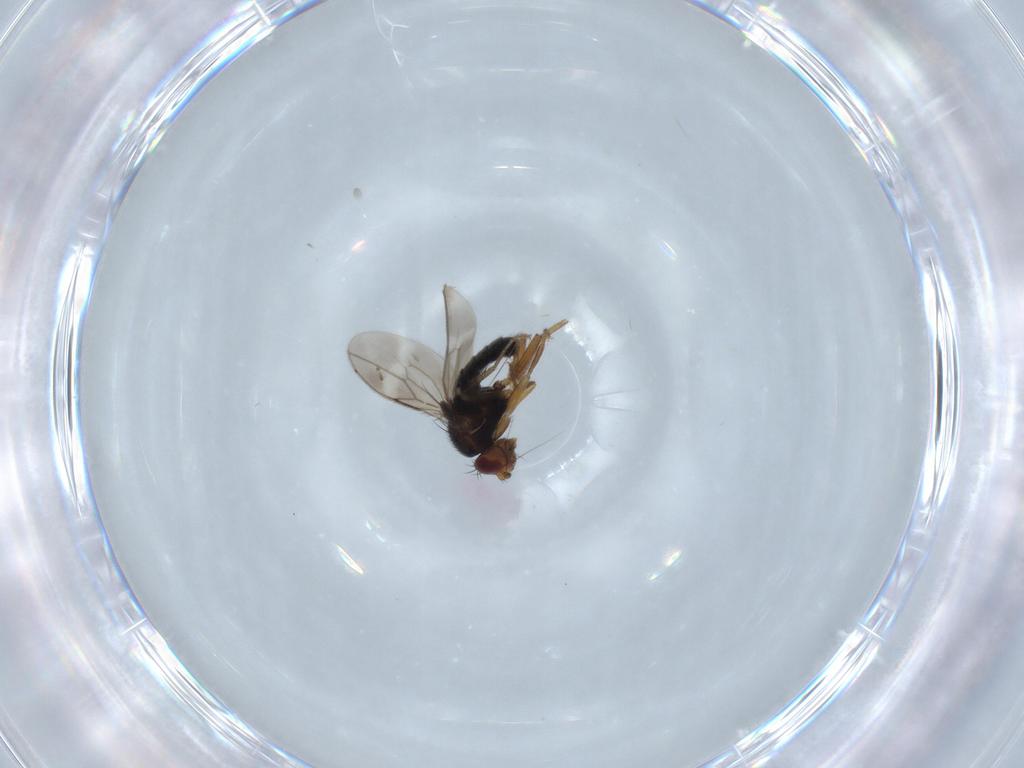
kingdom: Animalia
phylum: Arthropoda
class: Insecta
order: Diptera
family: Sphaeroceridae
